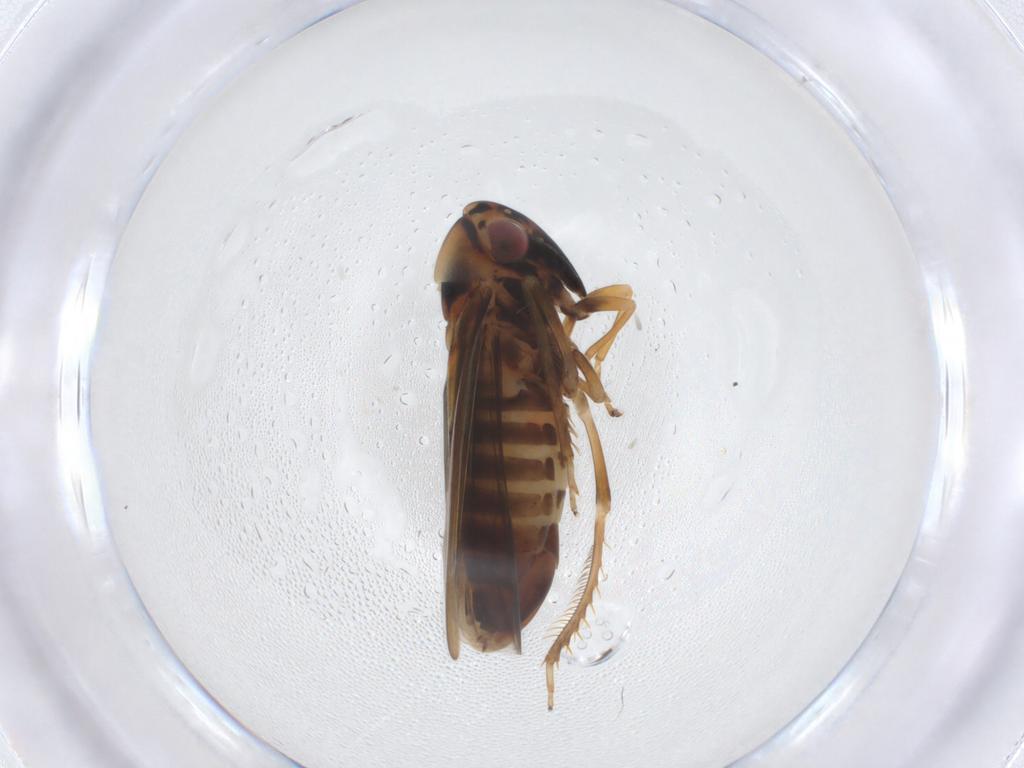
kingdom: Animalia
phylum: Arthropoda
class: Insecta
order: Hemiptera
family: Cicadellidae
